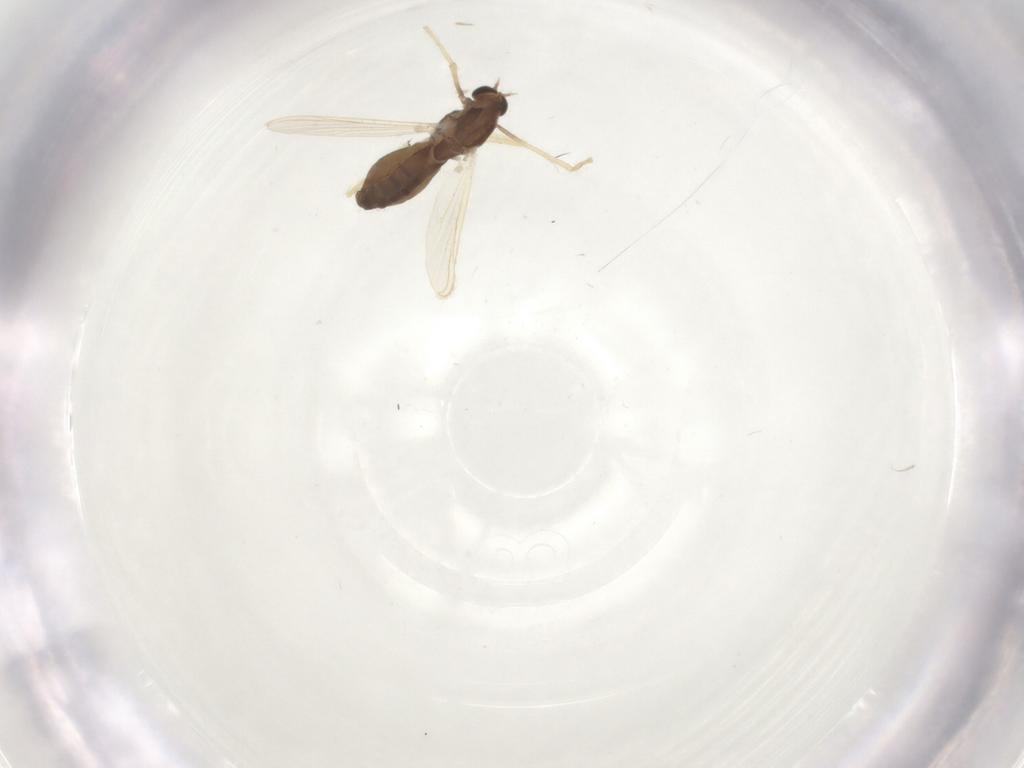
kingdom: Animalia
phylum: Arthropoda
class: Insecta
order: Diptera
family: Chironomidae
